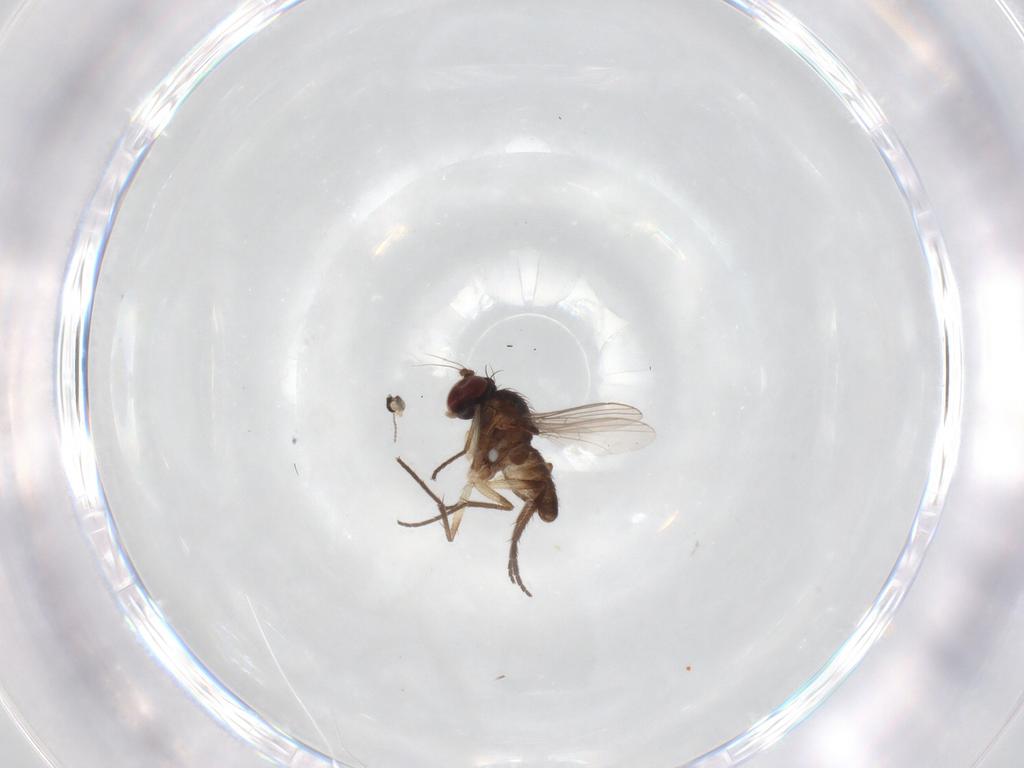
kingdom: Animalia
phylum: Arthropoda
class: Insecta
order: Diptera
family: Dolichopodidae
